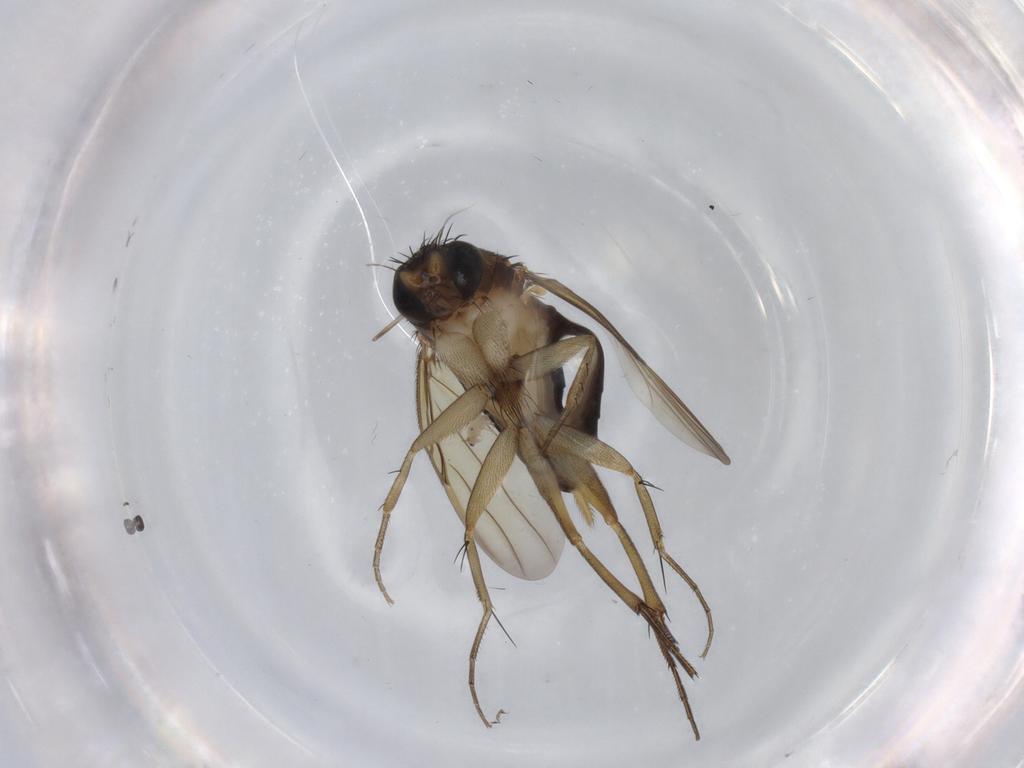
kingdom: Animalia
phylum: Arthropoda
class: Insecta
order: Diptera
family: Phoridae
